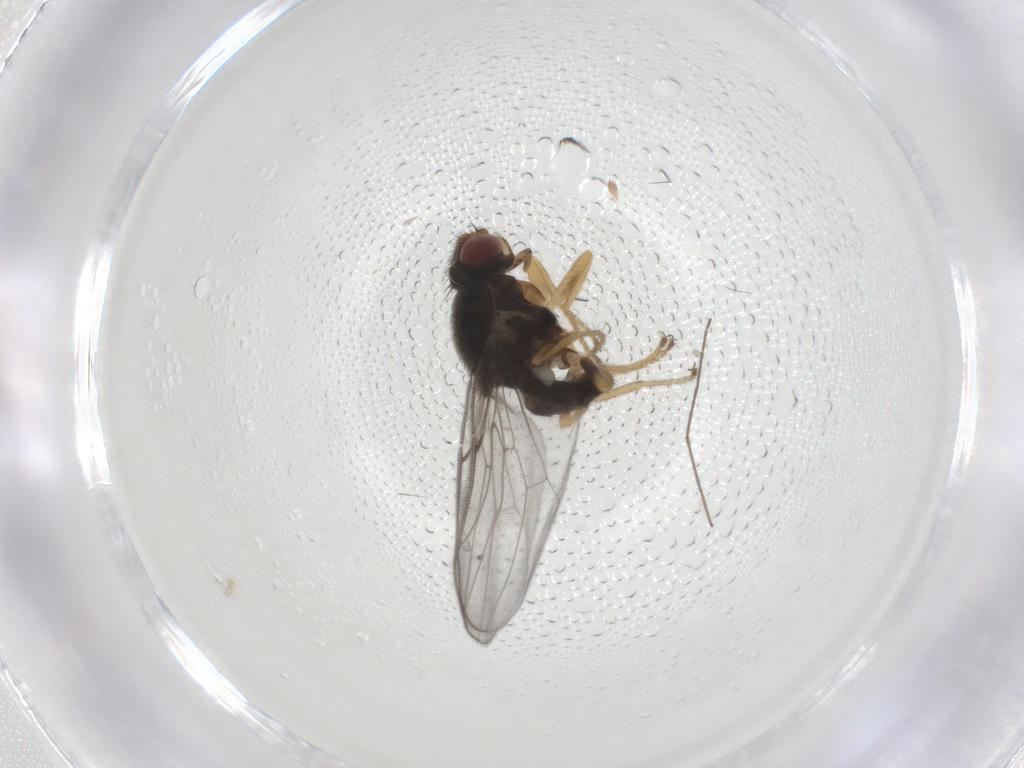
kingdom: Animalia
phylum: Arthropoda
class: Insecta
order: Diptera
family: Chloropidae
